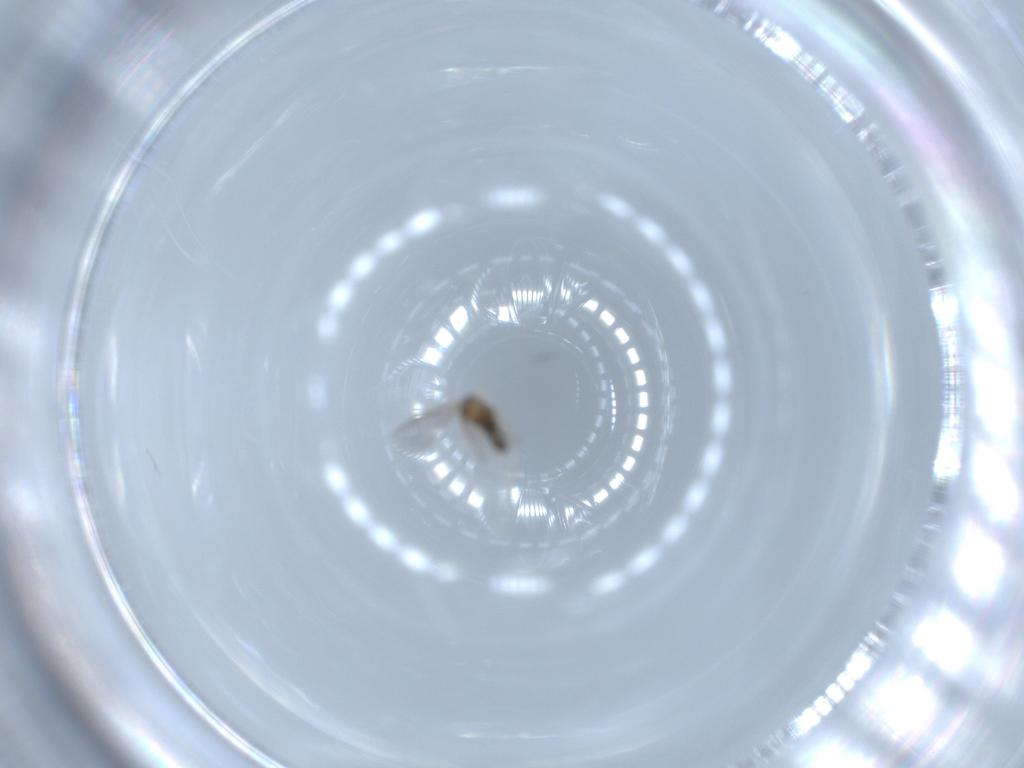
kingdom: Animalia
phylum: Arthropoda
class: Insecta
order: Diptera
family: Cecidomyiidae
